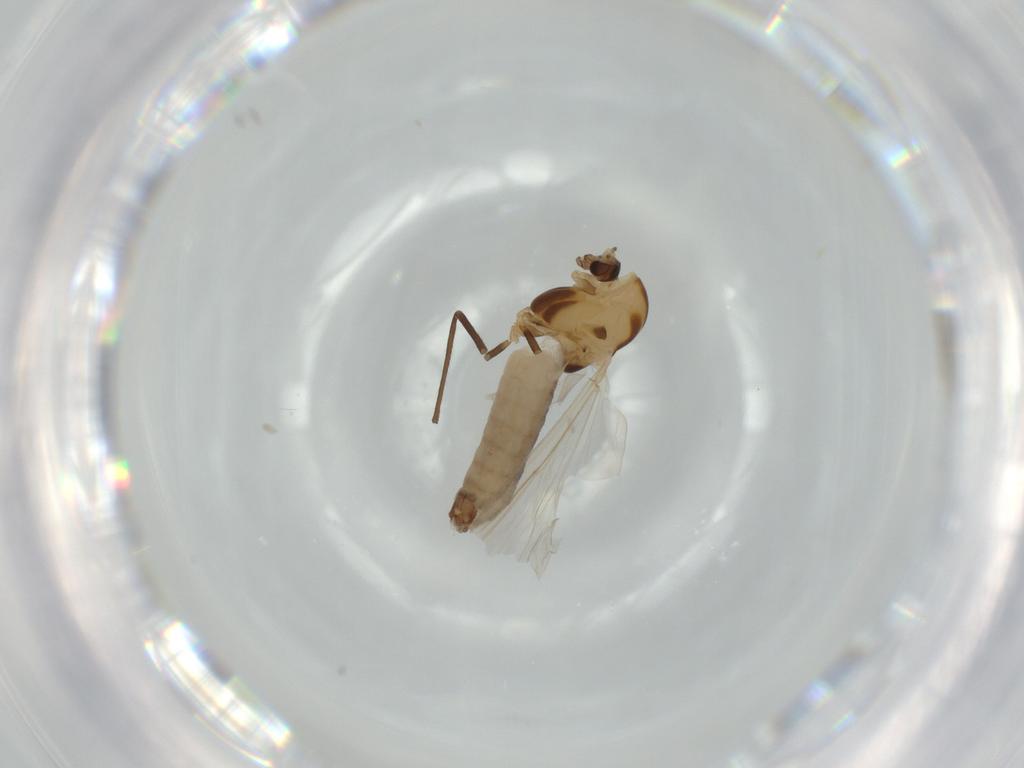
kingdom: Animalia
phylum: Arthropoda
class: Insecta
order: Diptera
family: Chironomidae
